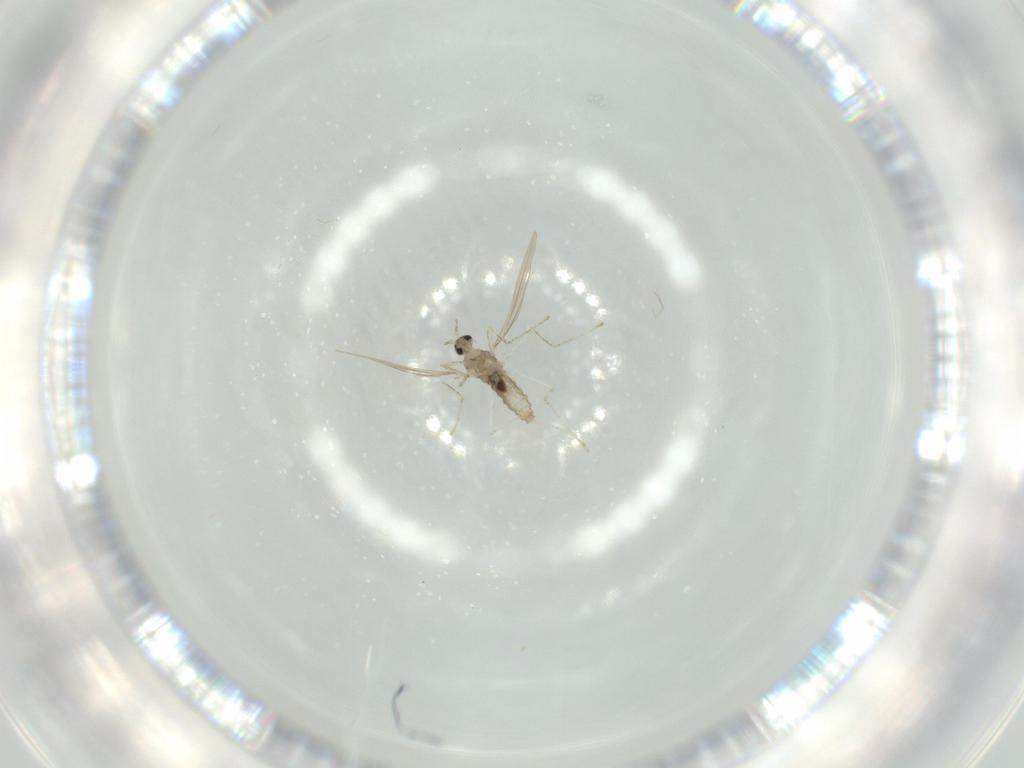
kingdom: Animalia
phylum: Arthropoda
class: Insecta
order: Diptera
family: Cecidomyiidae
